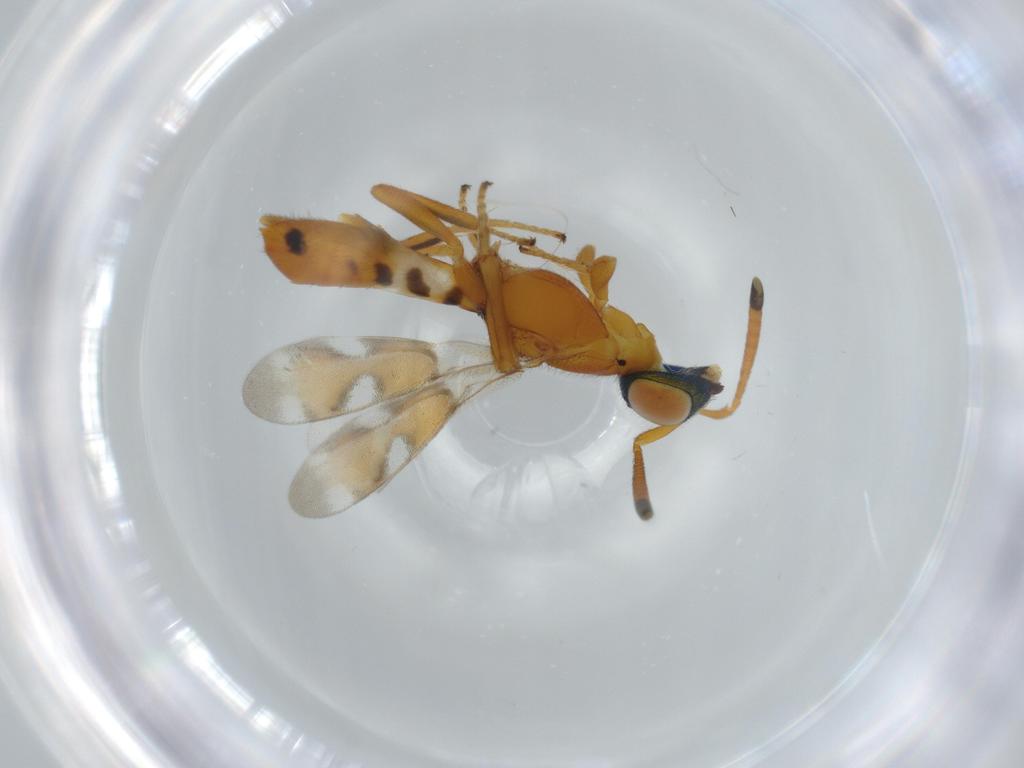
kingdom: Animalia
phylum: Arthropoda
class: Insecta
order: Hymenoptera
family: Eupelmidae
